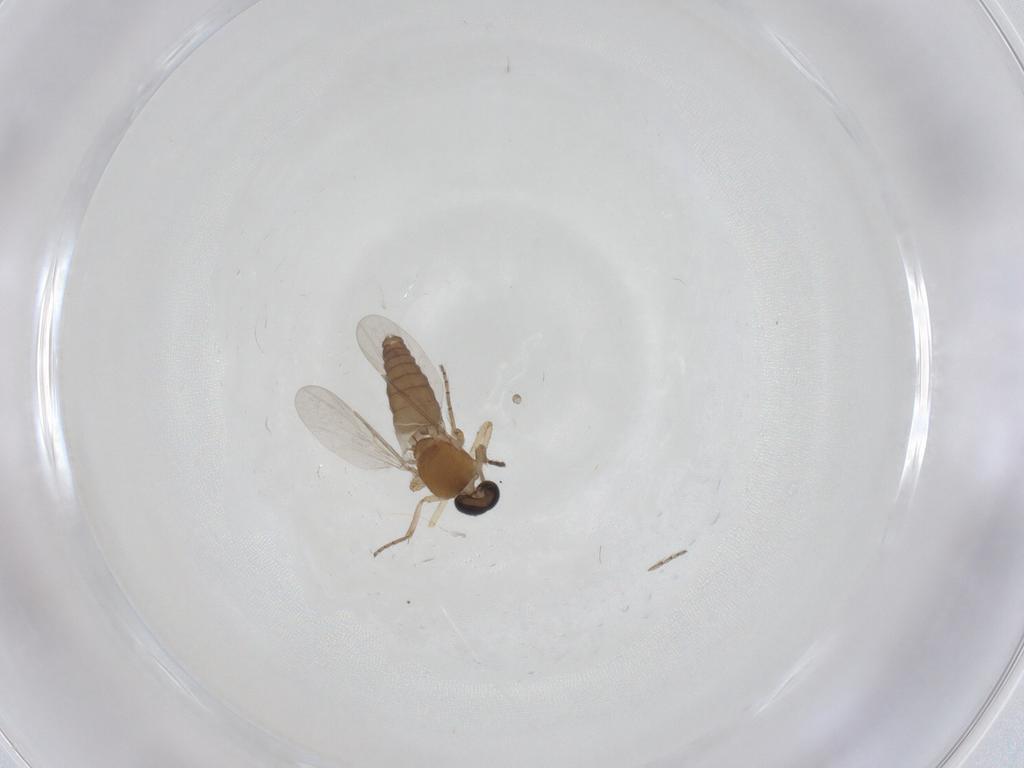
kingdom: Animalia
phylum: Arthropoda
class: Insecta
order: Diptera
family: Ceratopogonidae
